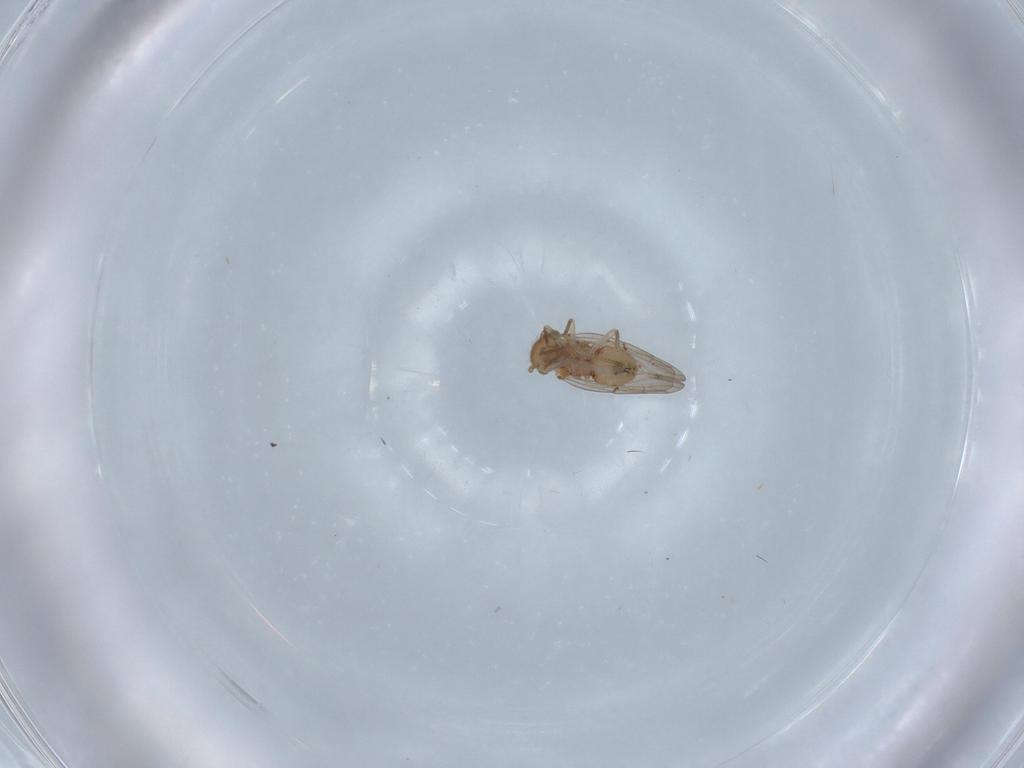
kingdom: Animalia
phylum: Arthropoda
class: Insecta
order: Psocodea
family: Ectopsocidae
